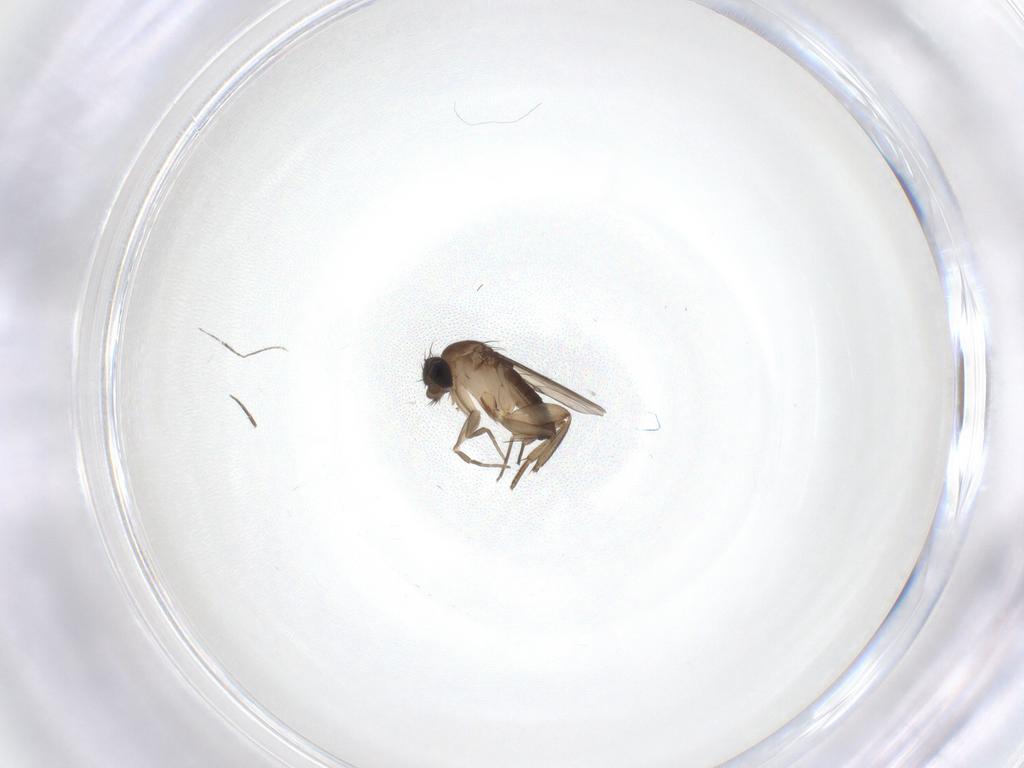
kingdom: Animalia
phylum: Arthropoda
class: Insecta
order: Diptera
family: Phoridae
